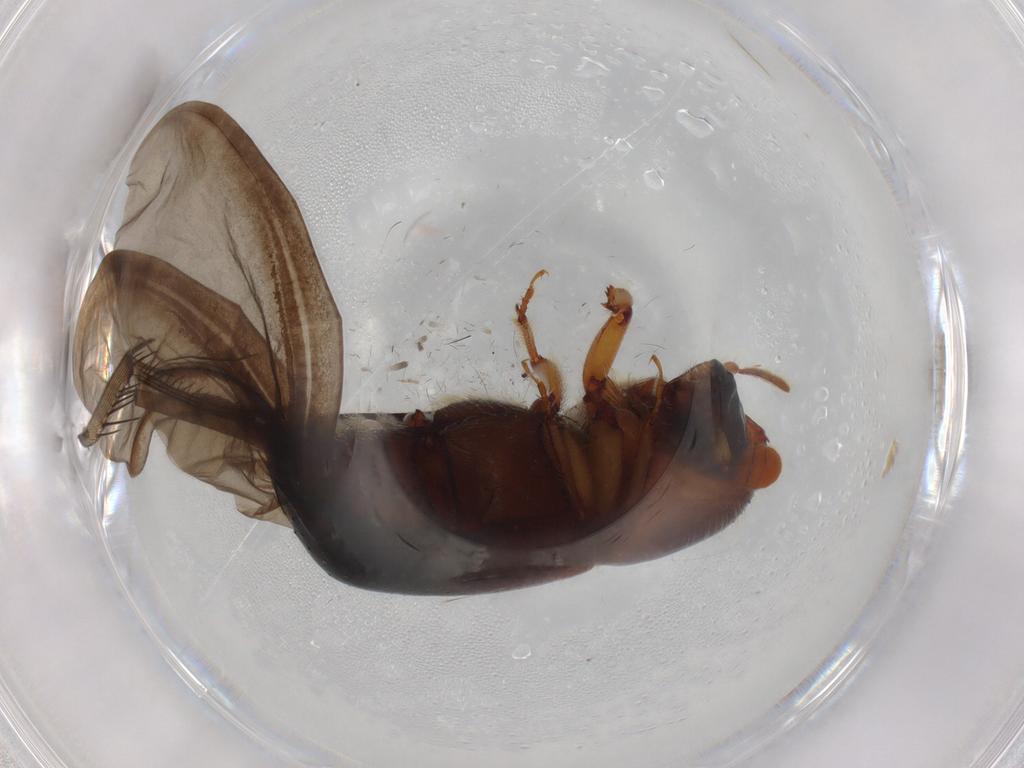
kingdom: Animalia
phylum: Arthropoda
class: Insecta
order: Coleoptera
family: Curculionidae
